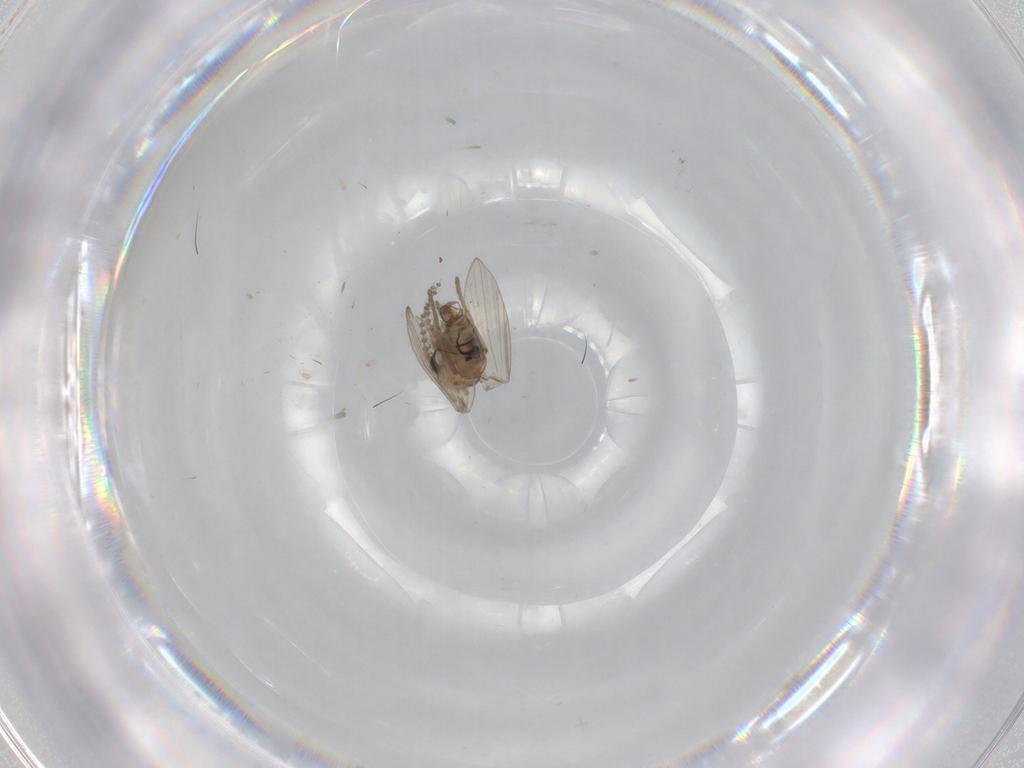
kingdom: Animalia
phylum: Arthropoda
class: Insecta
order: Diptera
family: Psychodidae
